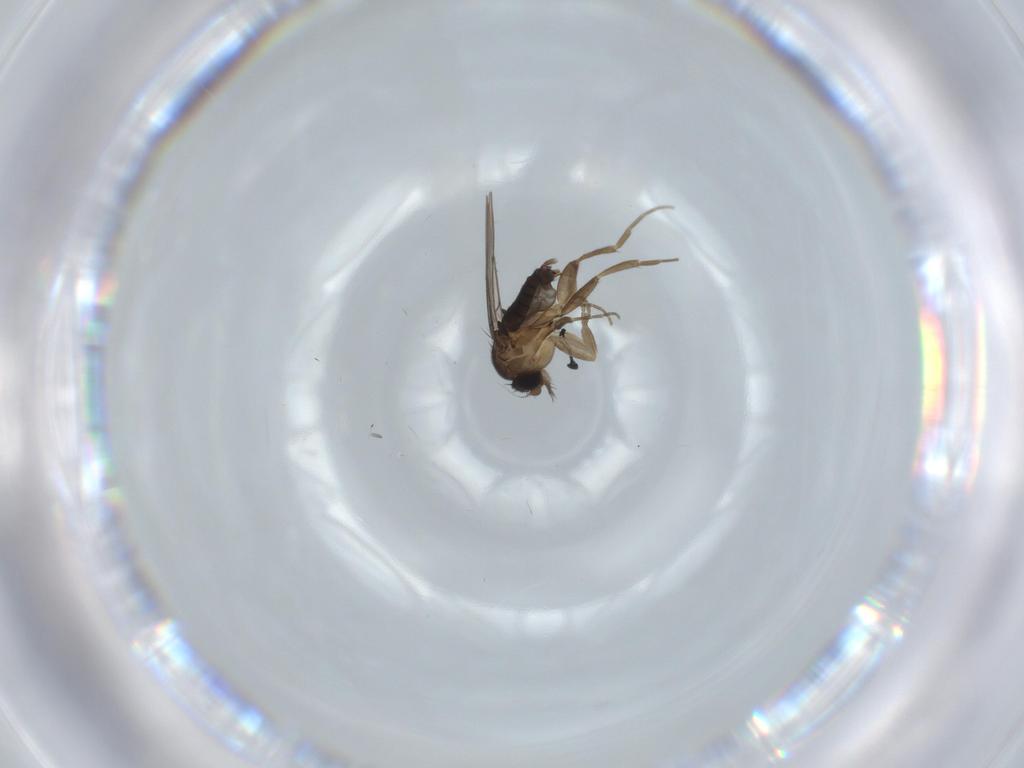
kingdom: Animalia
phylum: Arthropoda
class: Insecta
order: Diptera
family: Phoridae
